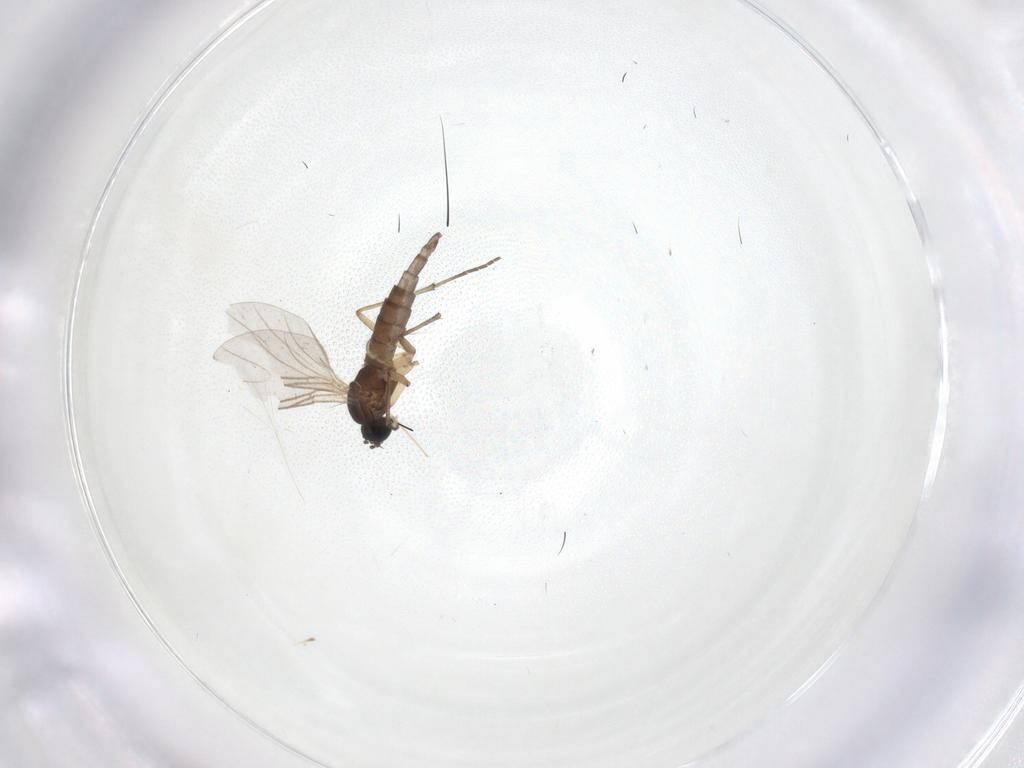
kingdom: Animalia
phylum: Arthropoda
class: Insecta
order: Diptera
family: Sciaridae
